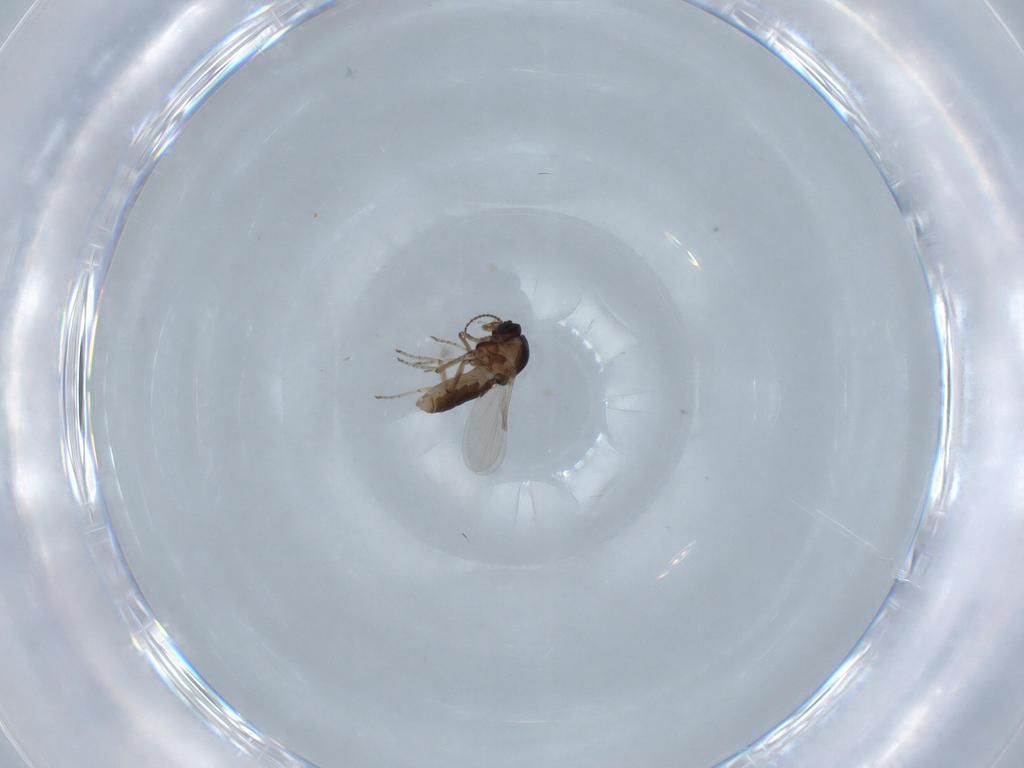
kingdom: Animalia
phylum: Arthropoda
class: Insecta
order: Diptera
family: Ceratopogonidae
